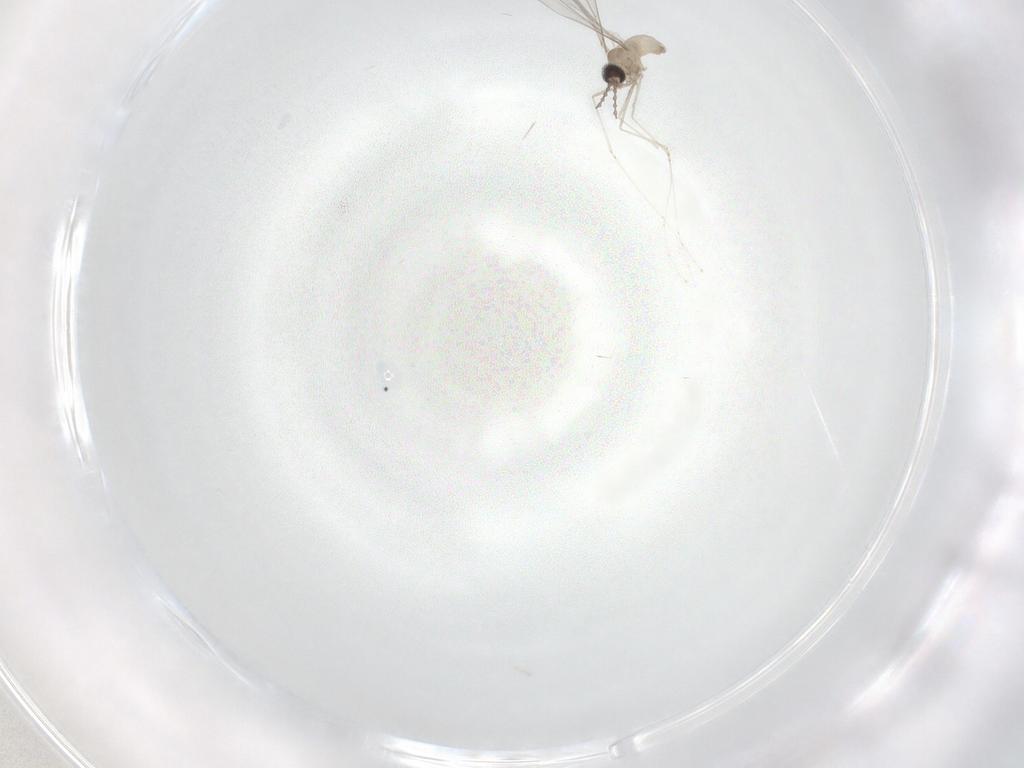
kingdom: Animalia
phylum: Arthropoda
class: Insecta
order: Diptera
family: Cecidomyiidae
